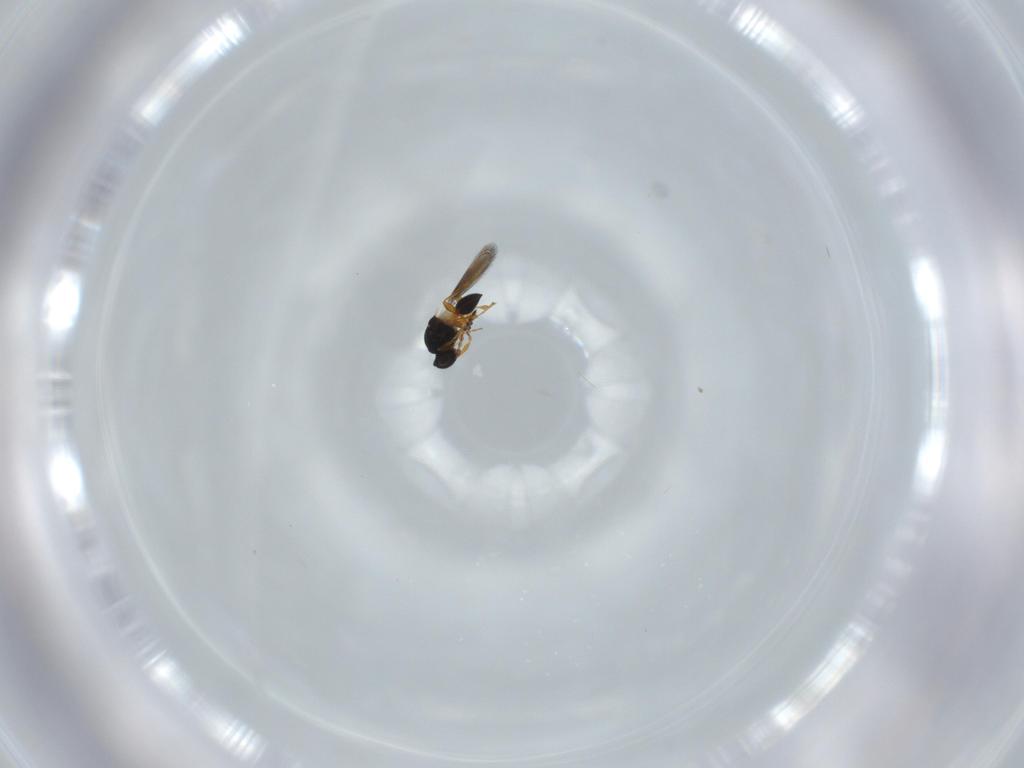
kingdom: Animalia
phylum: Arthropoda
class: Insecta
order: Hymenoptera
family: Platygastridae
